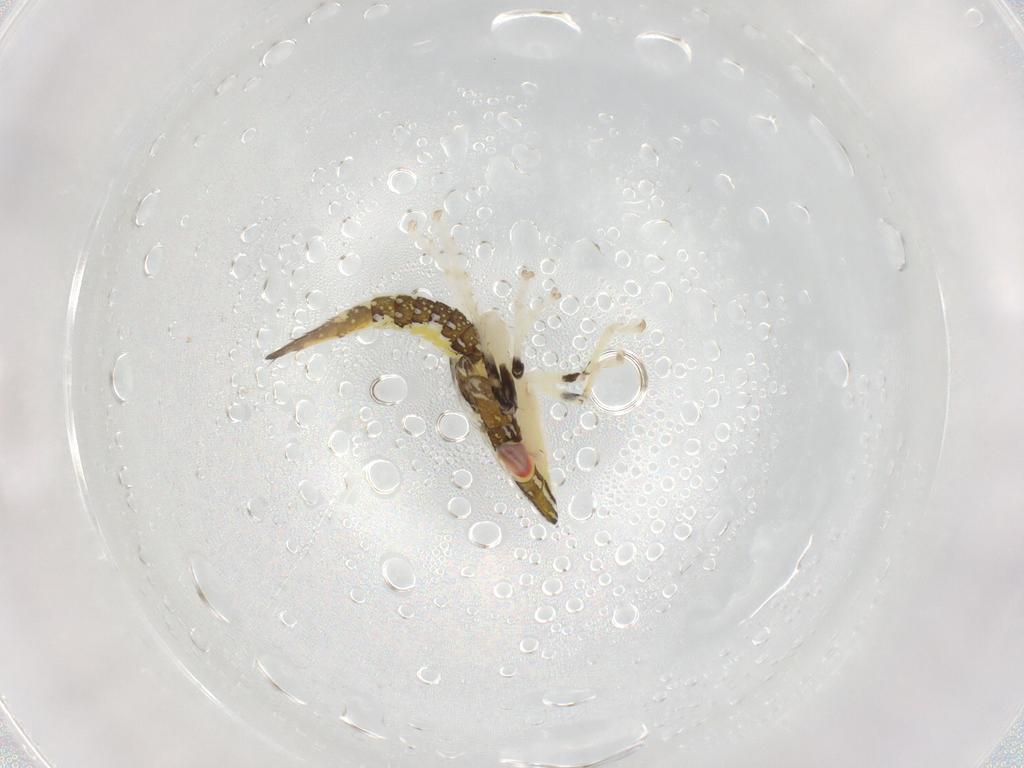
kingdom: Animalia
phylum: Arthropoda
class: Insecta
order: Hemiptera
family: Cicadellidae
